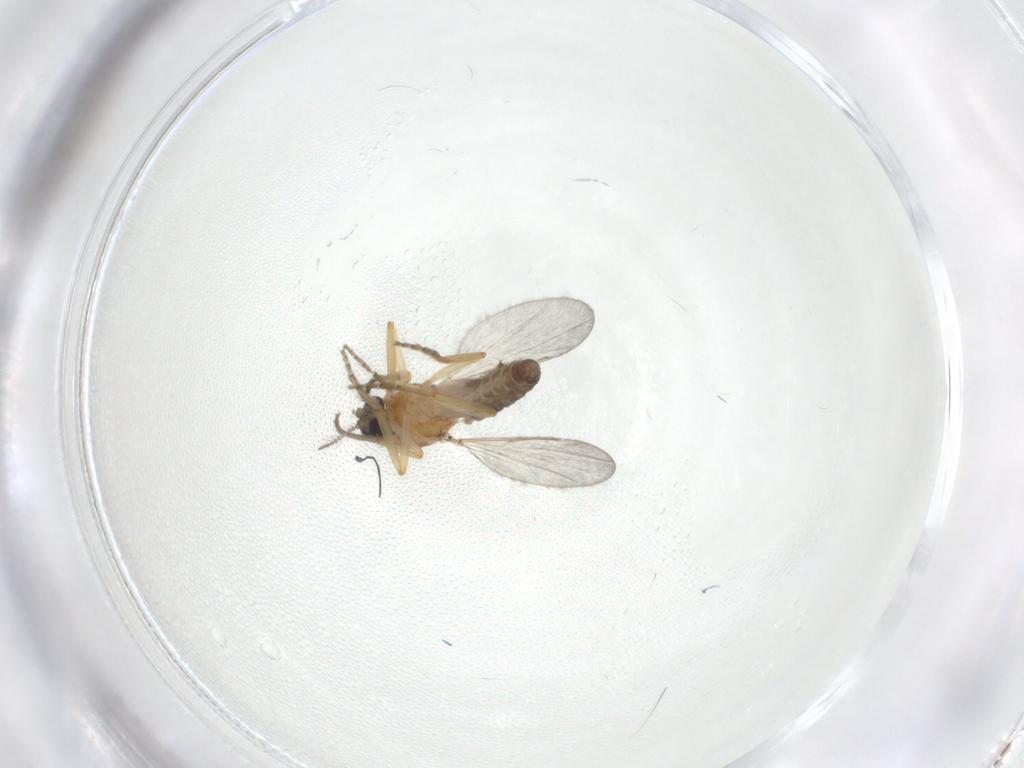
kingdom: Animalia
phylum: Arthropoda
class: Insecta
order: Diptera
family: Ceratopogonidae
